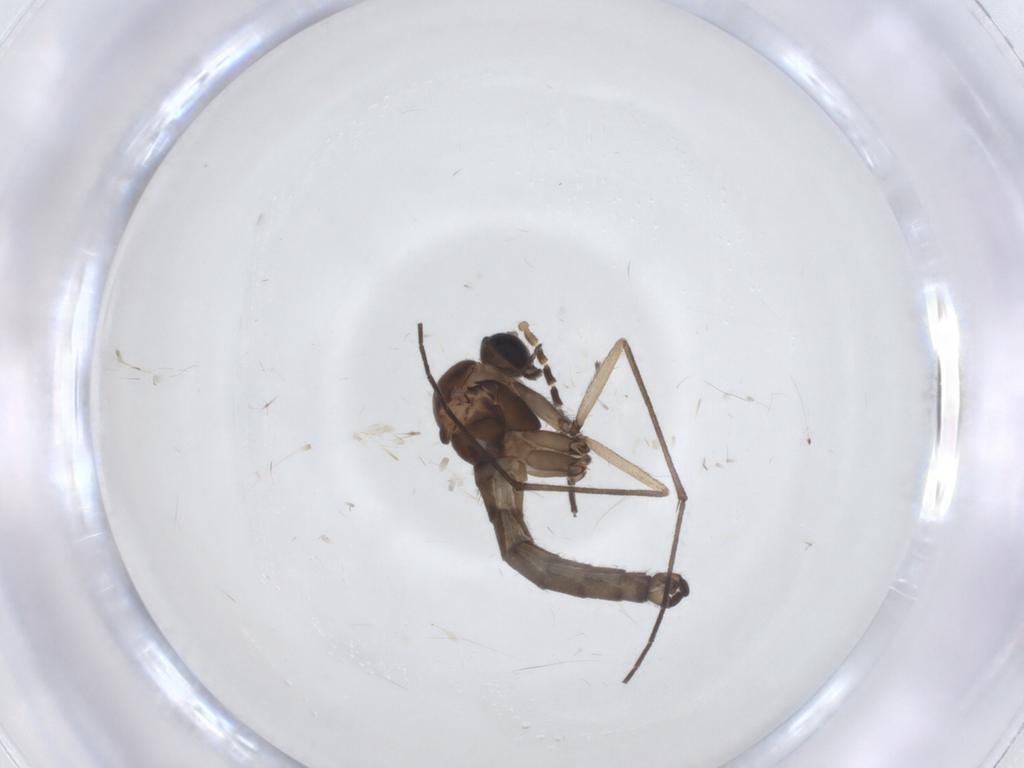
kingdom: Animalia
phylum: Arthropoda
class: Insecta
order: Diptera
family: Sciaridae
